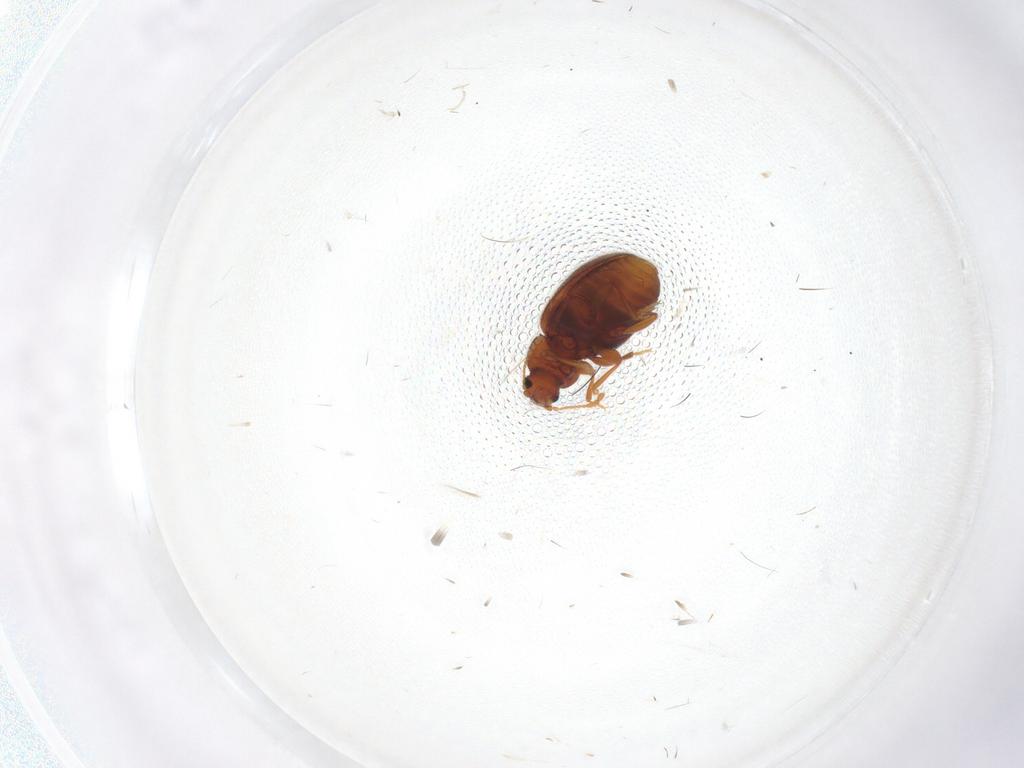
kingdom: Animalia
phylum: Arthropoda
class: Insecta
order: Coleoptera
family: Latridiidae
